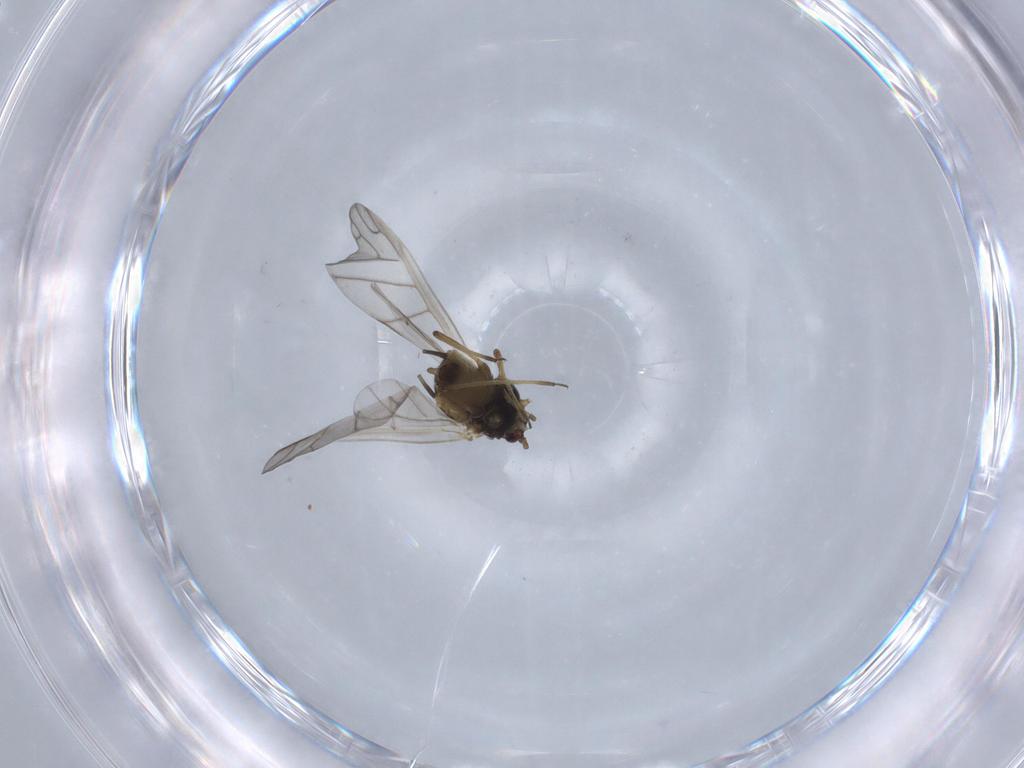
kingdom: Animalia
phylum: Arthropoda
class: Insecta
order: Hemiptera
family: Aphididae
